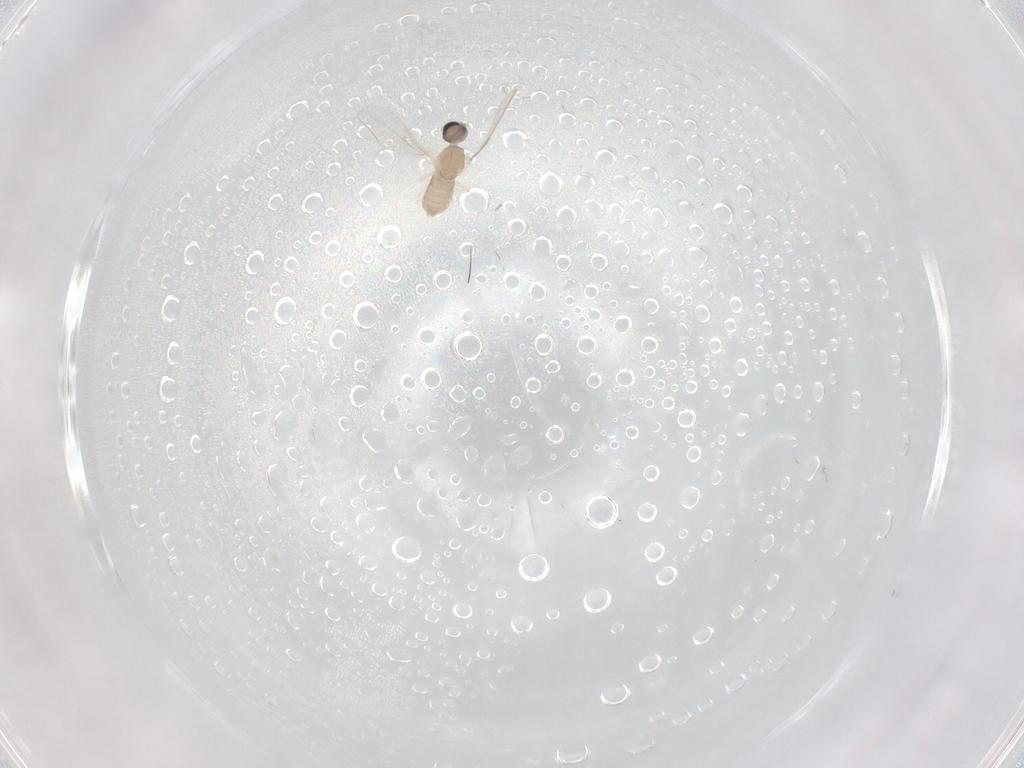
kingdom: Animalia
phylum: Arthropoda
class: Insecta
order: Diptera
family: Cecidomyiidae
